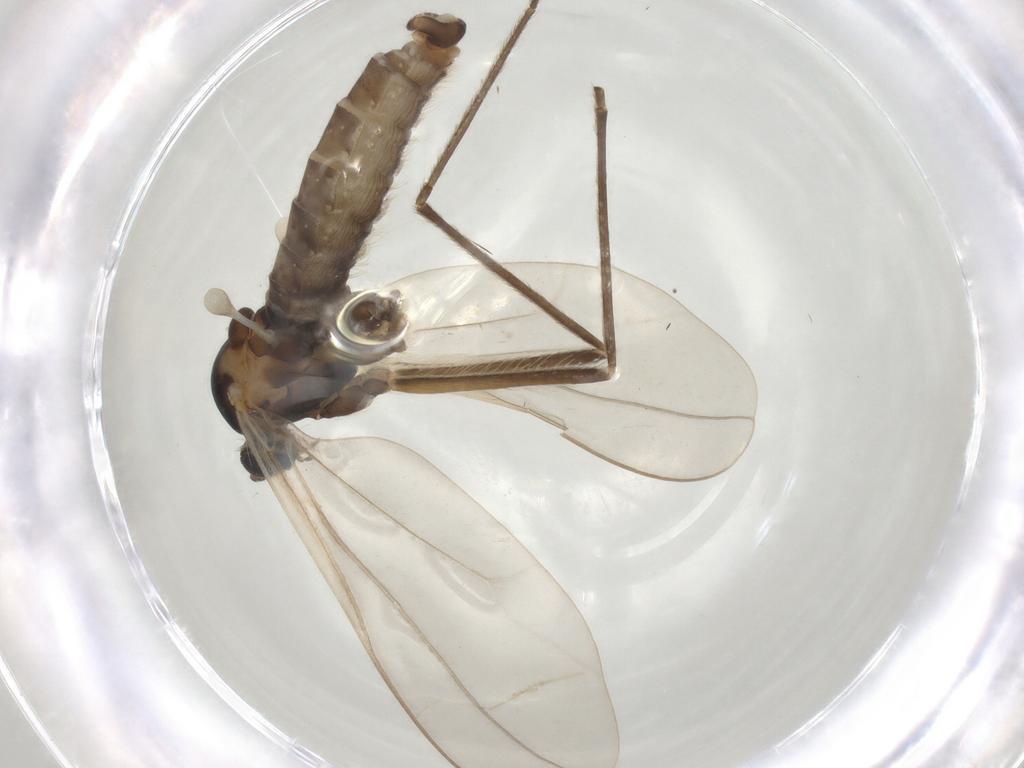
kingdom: Animalia
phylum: Arthropoda
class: Insecta
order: Diptera
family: Cecidomyiidae
